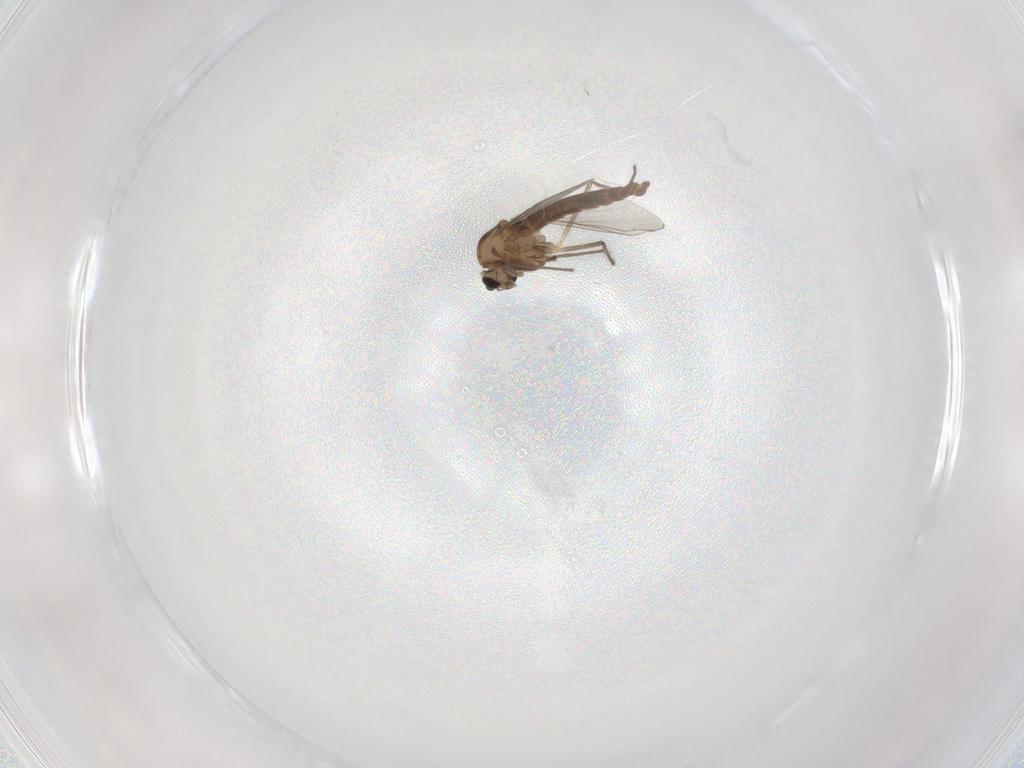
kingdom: Animalia
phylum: Arthropoda
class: Insecta
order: Diptera
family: Chironomidae
